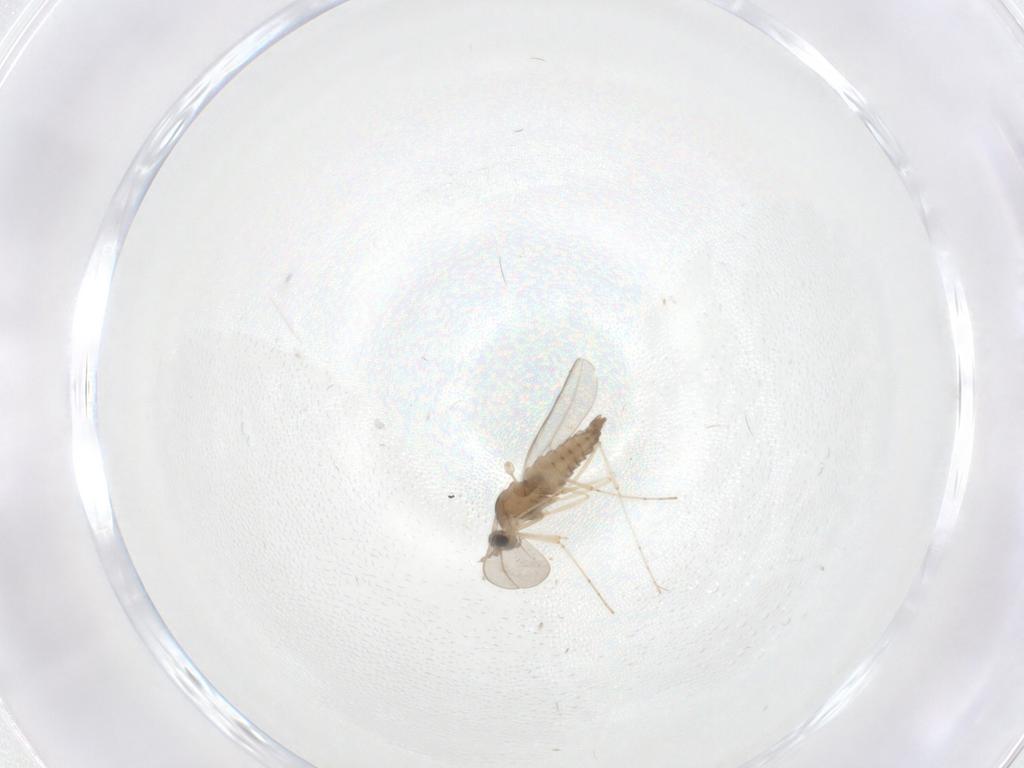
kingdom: Animalia
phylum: Arthropoda
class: Insecta
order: Diptera
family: Cecidomyiidae
